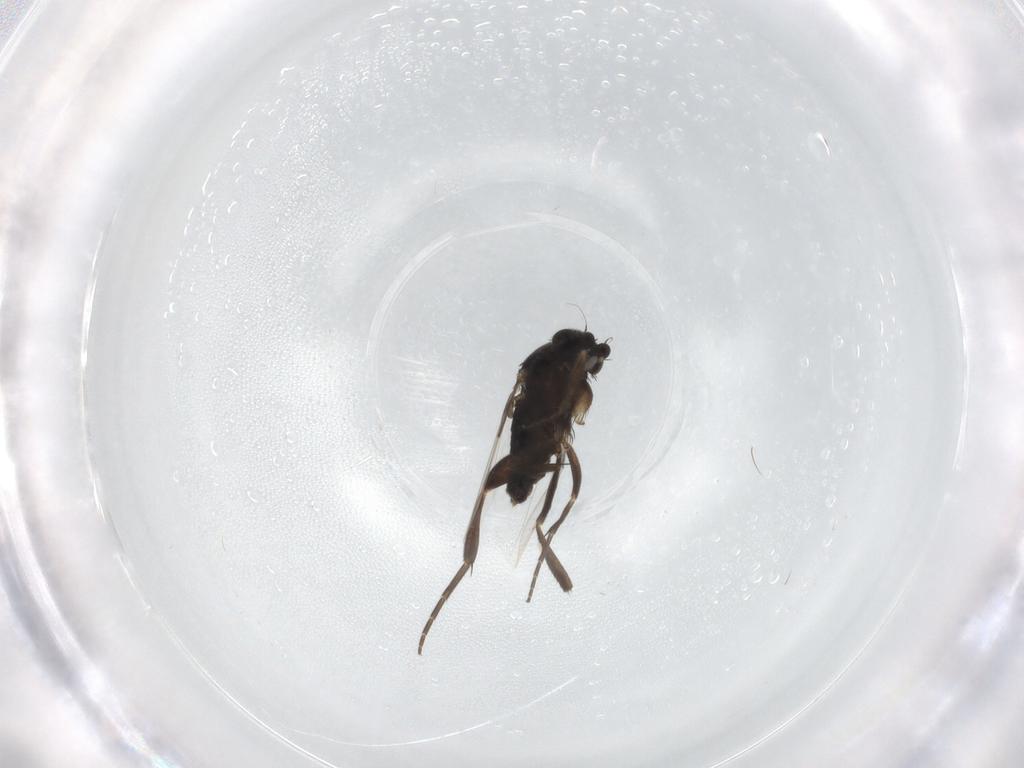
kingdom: Animalia
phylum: Arthropoda
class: Insecta
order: Diptera
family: Phoridae
